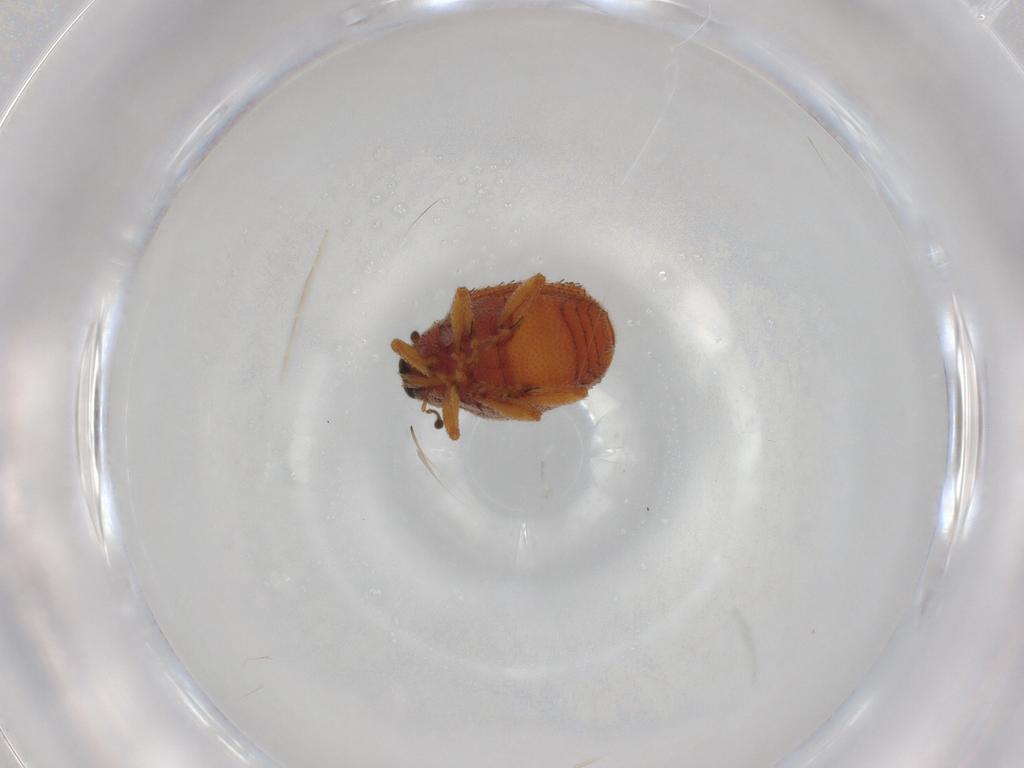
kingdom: Animalia
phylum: Arthropoda
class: Insecta
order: Coleoptera
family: Curculionidae
